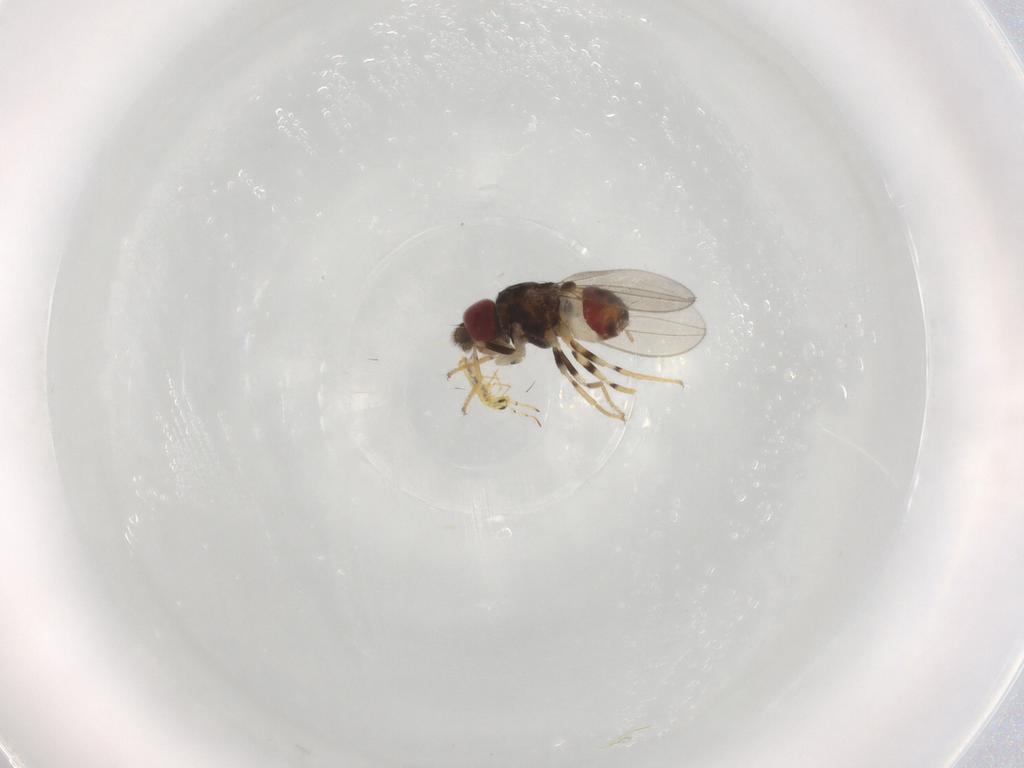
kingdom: Animalia
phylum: Arthropoda
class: Insecta
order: Diptera
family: Asteiidae
